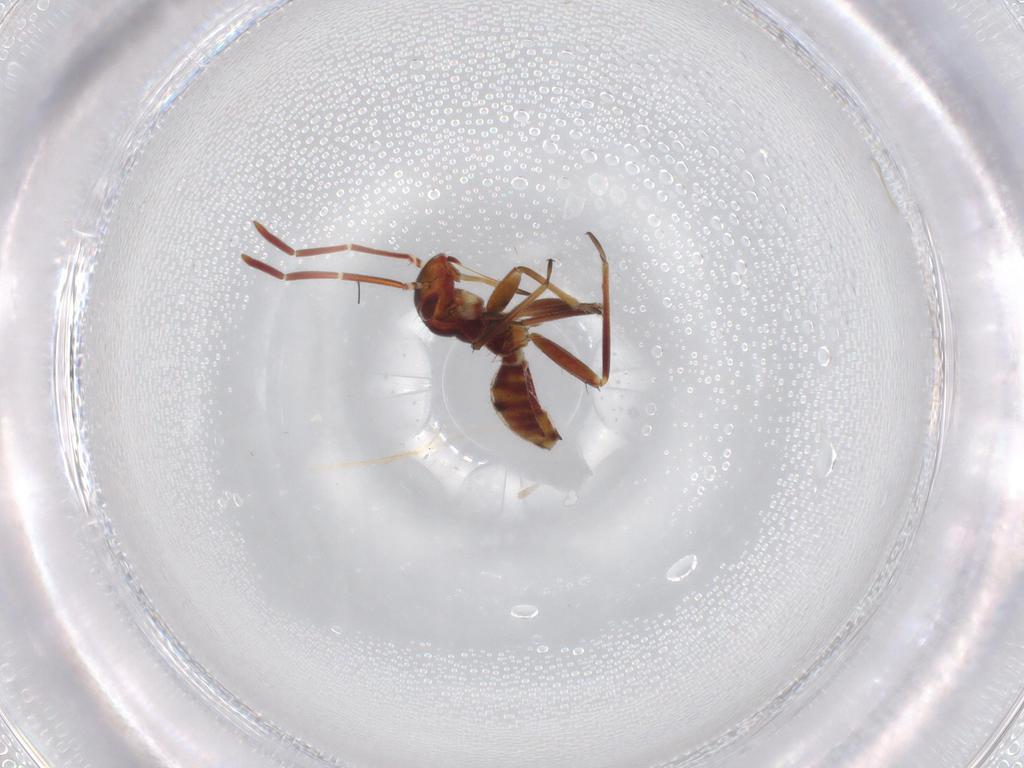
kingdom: Animalia
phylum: Arthropoda
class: Insecta
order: Hemiptera
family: Miridae
